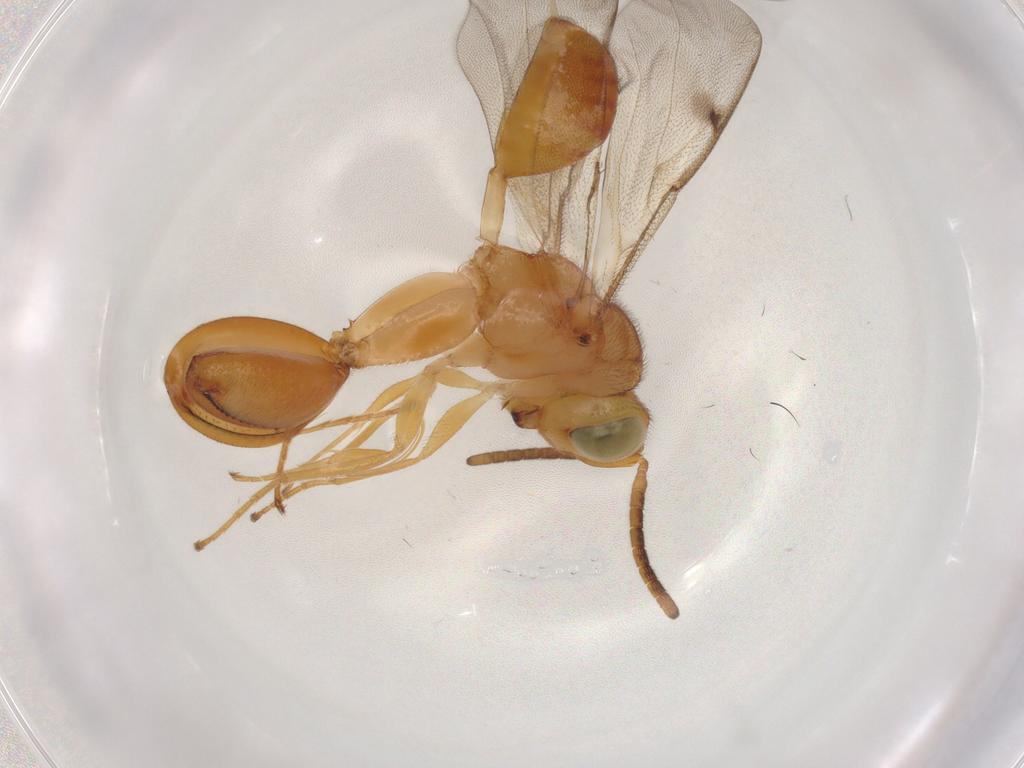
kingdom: Animalia
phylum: Arthropoda
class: Insecta
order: Hymenoptera
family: Chalcididae
